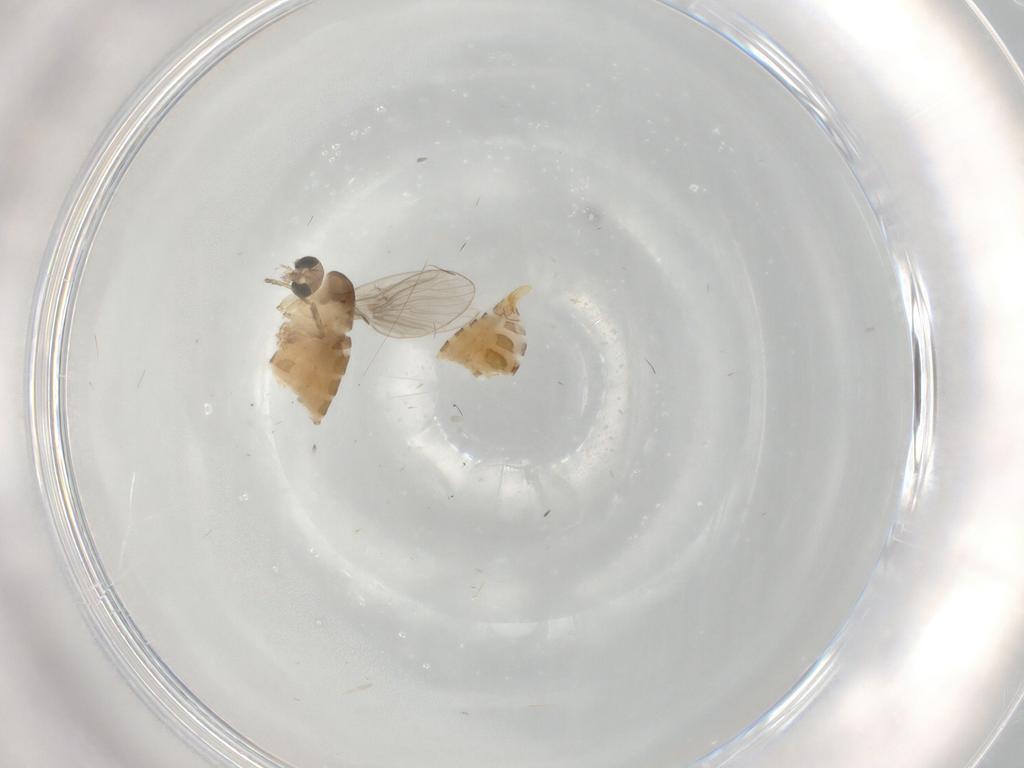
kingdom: Animalia
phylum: Arthropoda
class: Insecta
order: Diptera
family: Psychodidae
